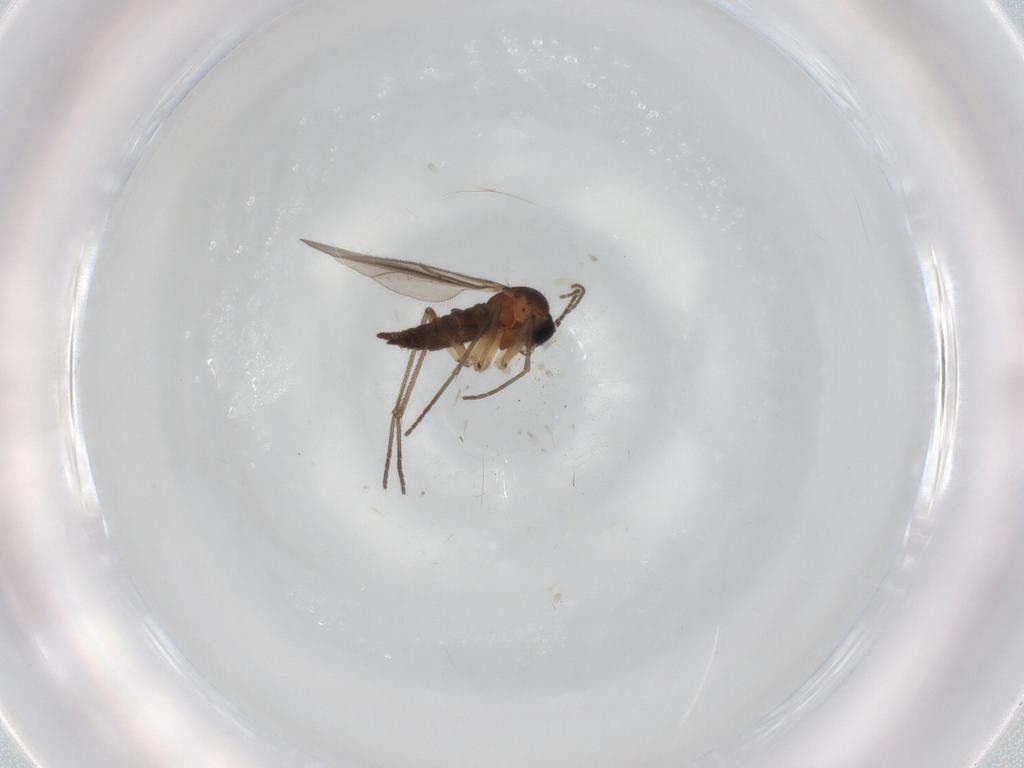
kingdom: Animalia
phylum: Arthropoda
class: Insecta
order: Diptera
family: Sciaridae
